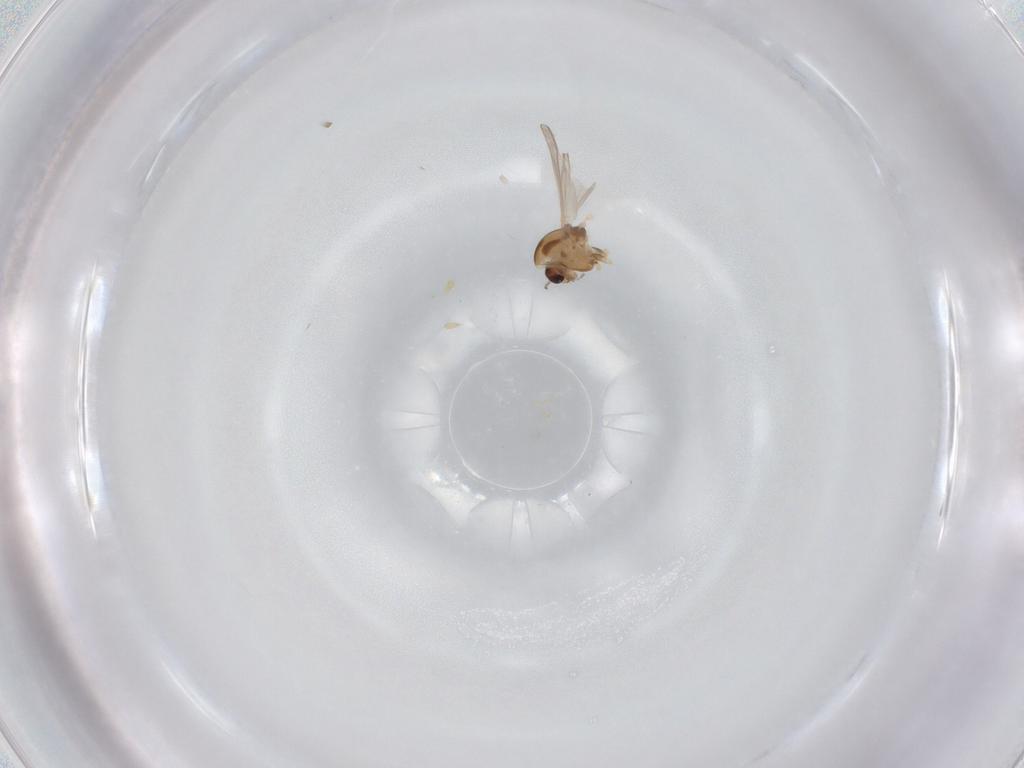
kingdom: Animalia
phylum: Arthropoda
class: Insecta
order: Diptera
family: Chironomidae
